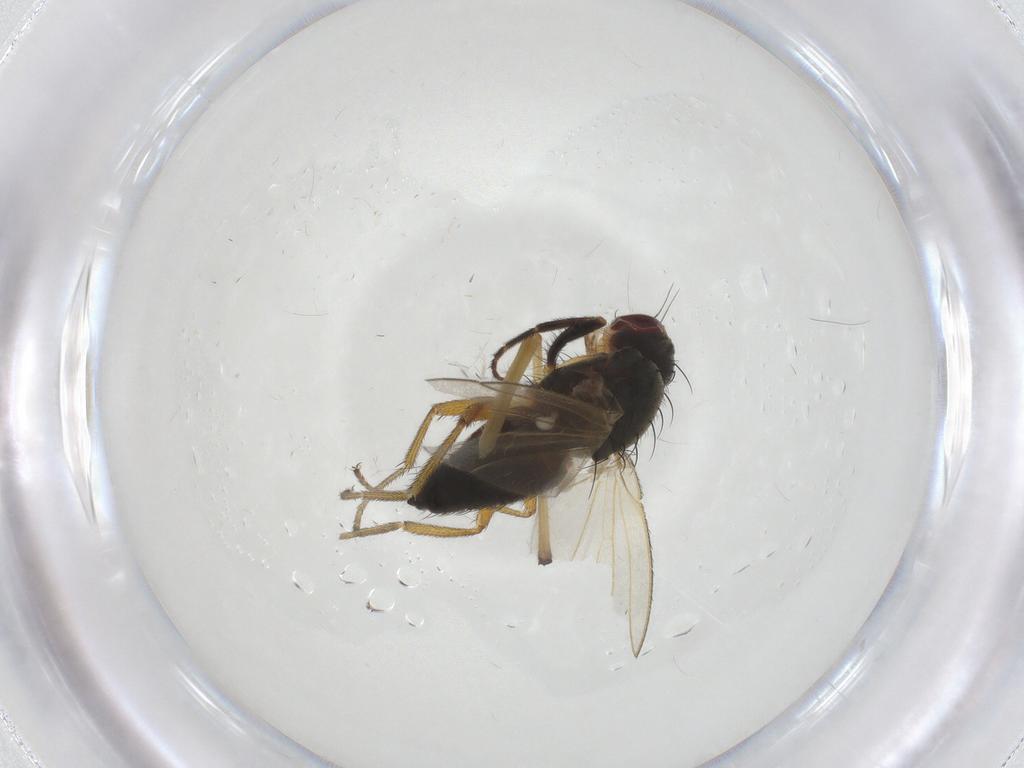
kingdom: Animalia
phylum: Arthropoda
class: Insecta
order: Diptera
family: Heleomyzidae
